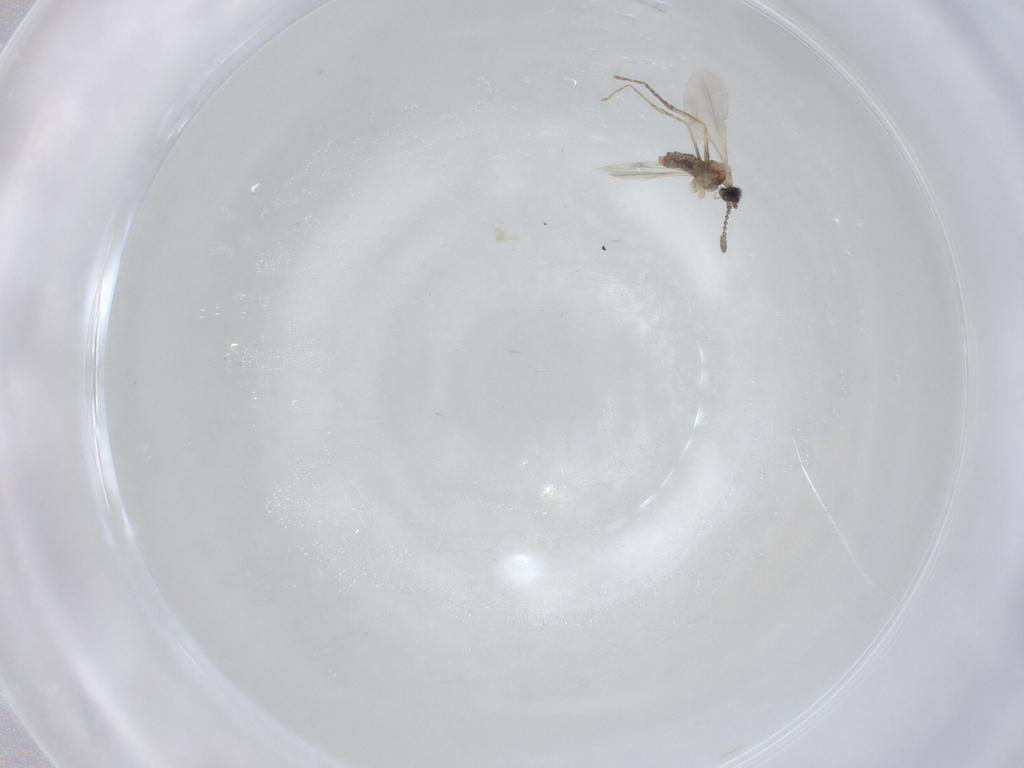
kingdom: Animalia
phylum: Arthropoda
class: Insecta
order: Diptera
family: Cecidomyiidae
